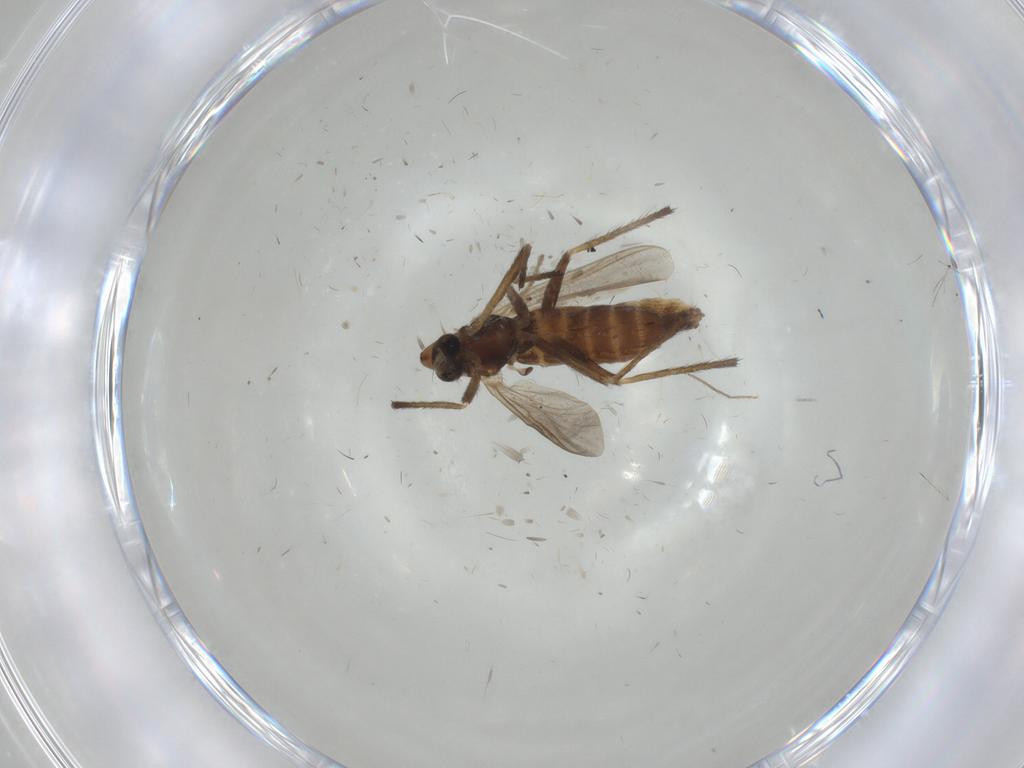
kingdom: Animalia
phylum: Arthropoda
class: Insecta
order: Diptera
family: Chironomidae
